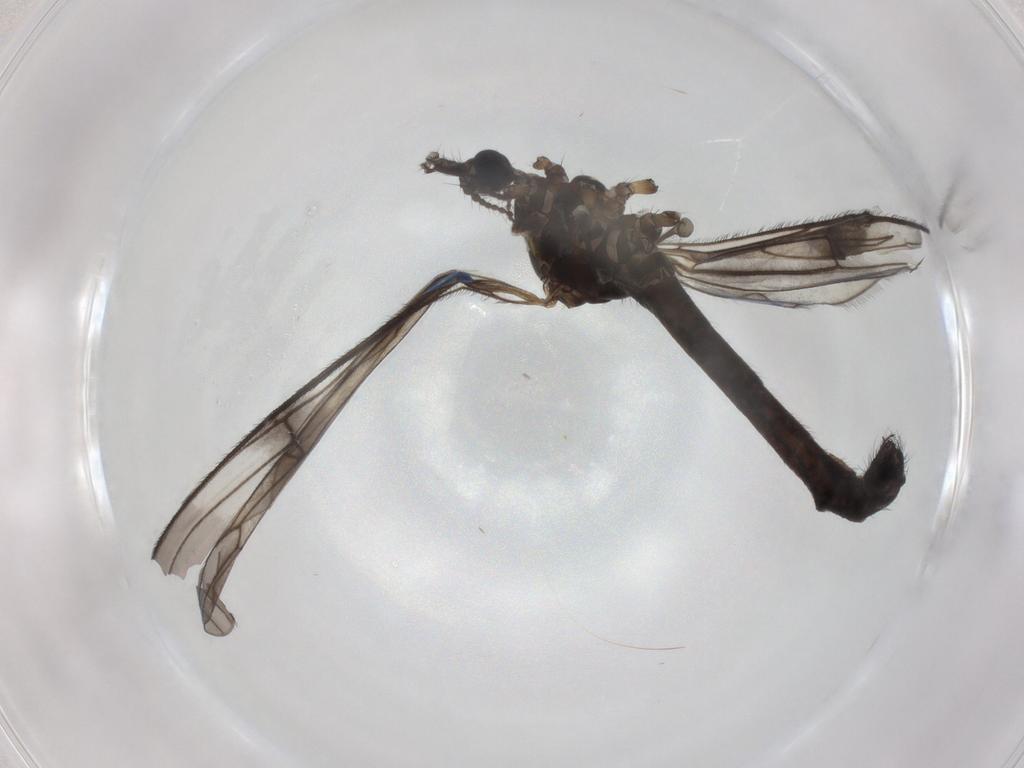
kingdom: Animalia
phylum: Arthropoda
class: Insecta
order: Diptera
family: Limoniidae
